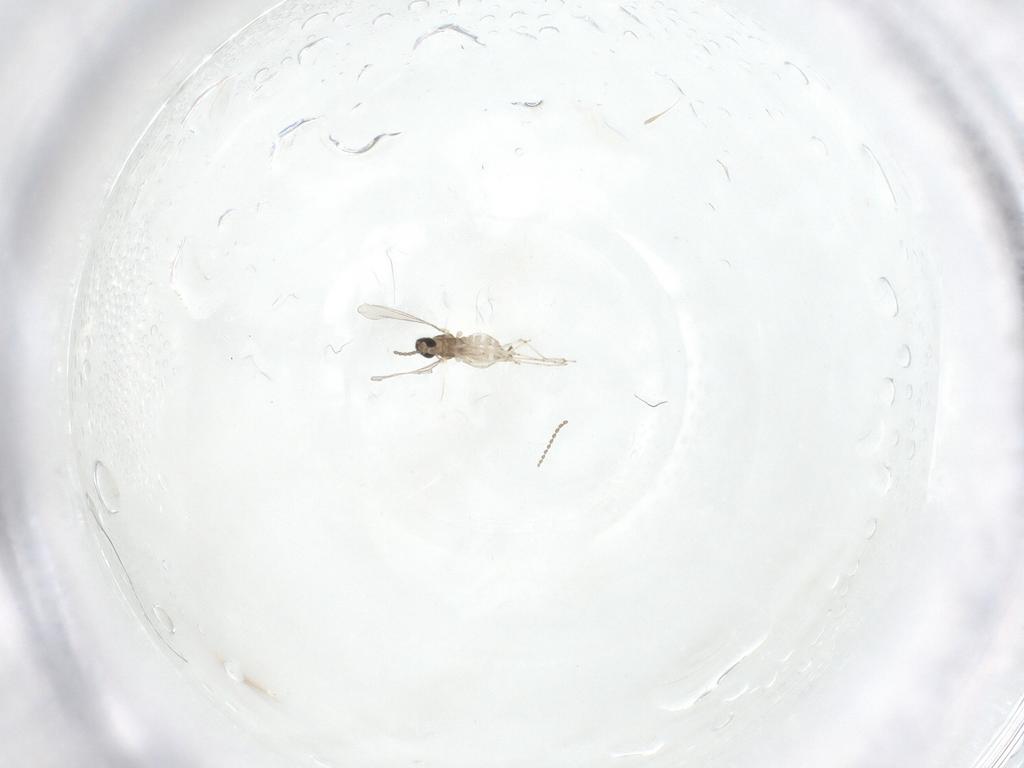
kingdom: Animalia
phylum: Arthropoda
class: Insecta
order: Diptera
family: Cecidomyiidae
